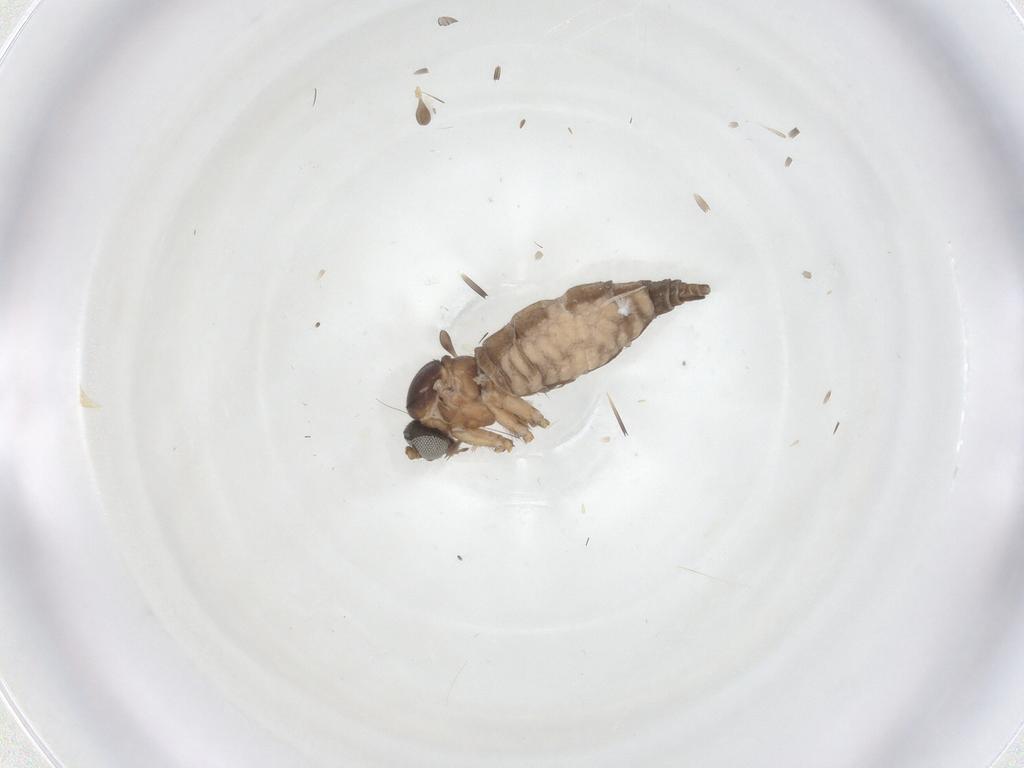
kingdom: Animalia
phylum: Arthropoda
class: Insecta
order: Diptera
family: Sciaridae
